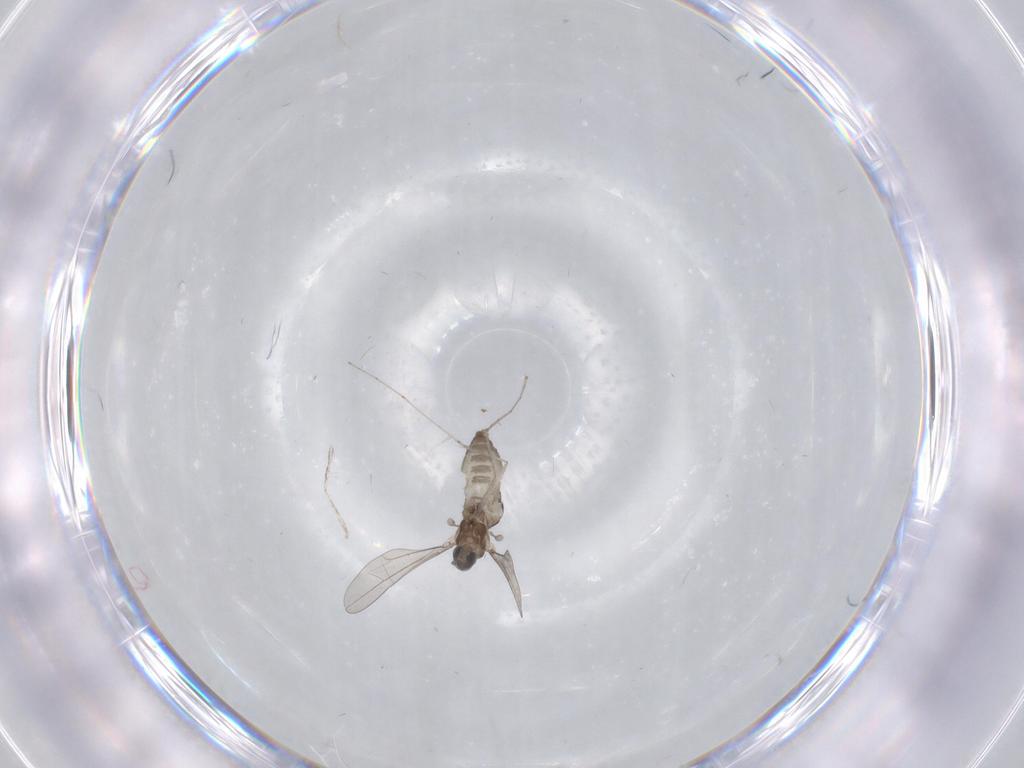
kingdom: Animalia
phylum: Arthropoda
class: Insecta
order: Diptera
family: Cecidomyiidae
